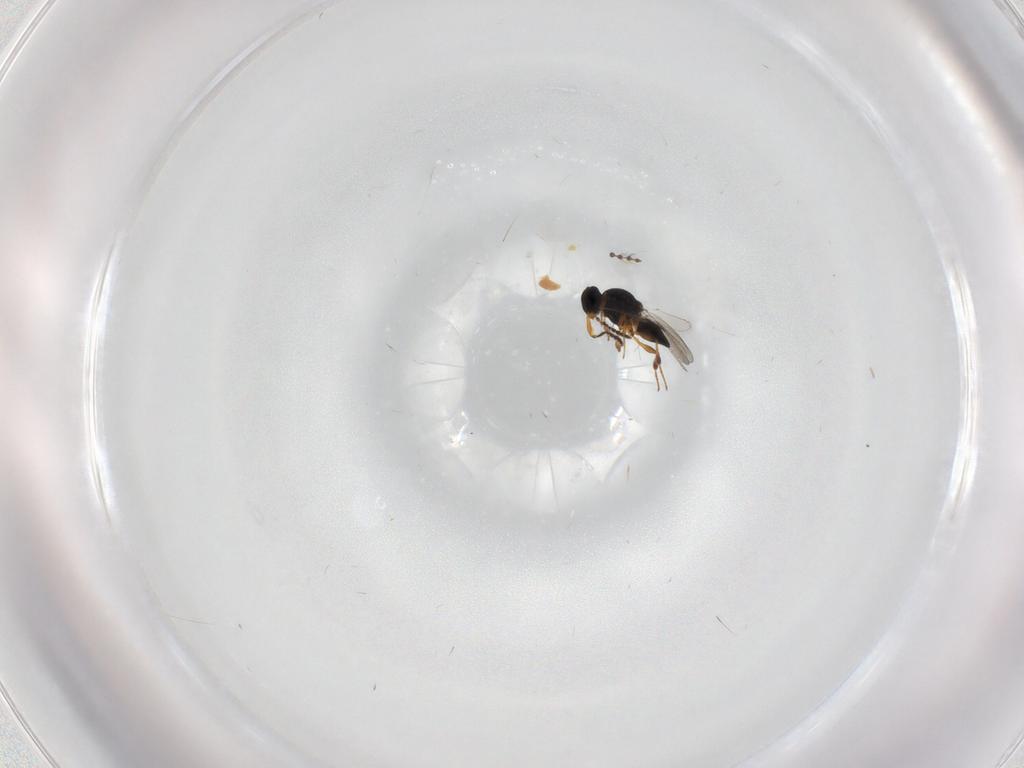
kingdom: Animalia
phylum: Arthropoda
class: Insecta
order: Hymenoptera
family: Platygastridae
